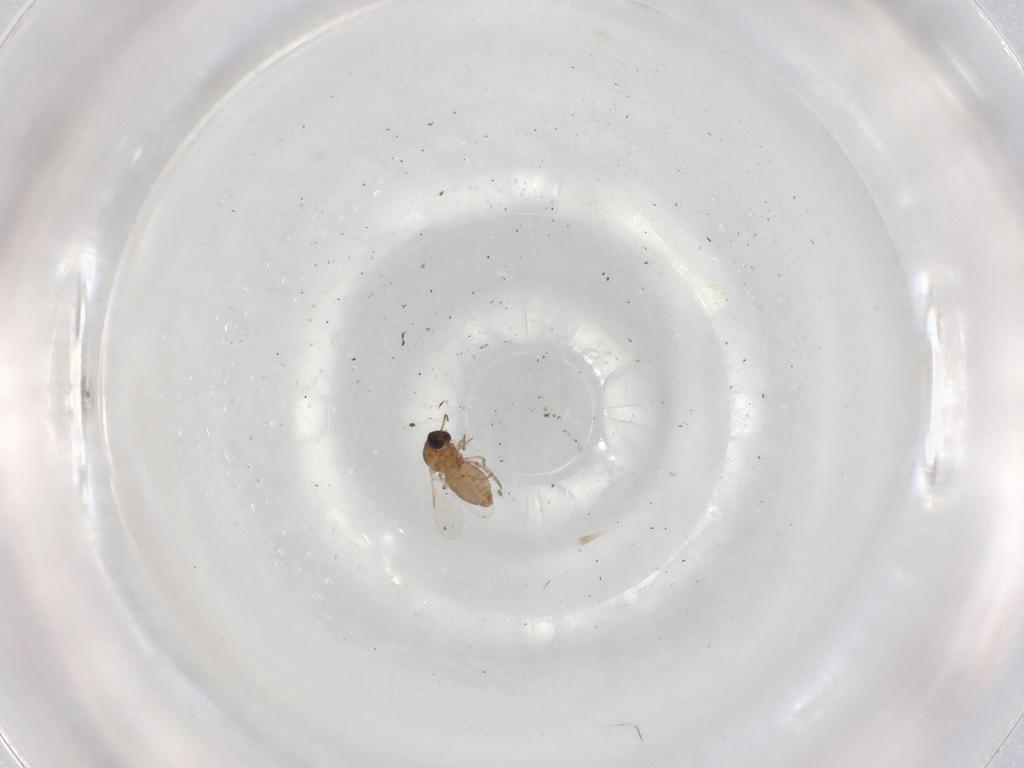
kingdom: Animalia
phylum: Arthropoda
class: Insecta
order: Diptera
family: Ceratopogonidae
